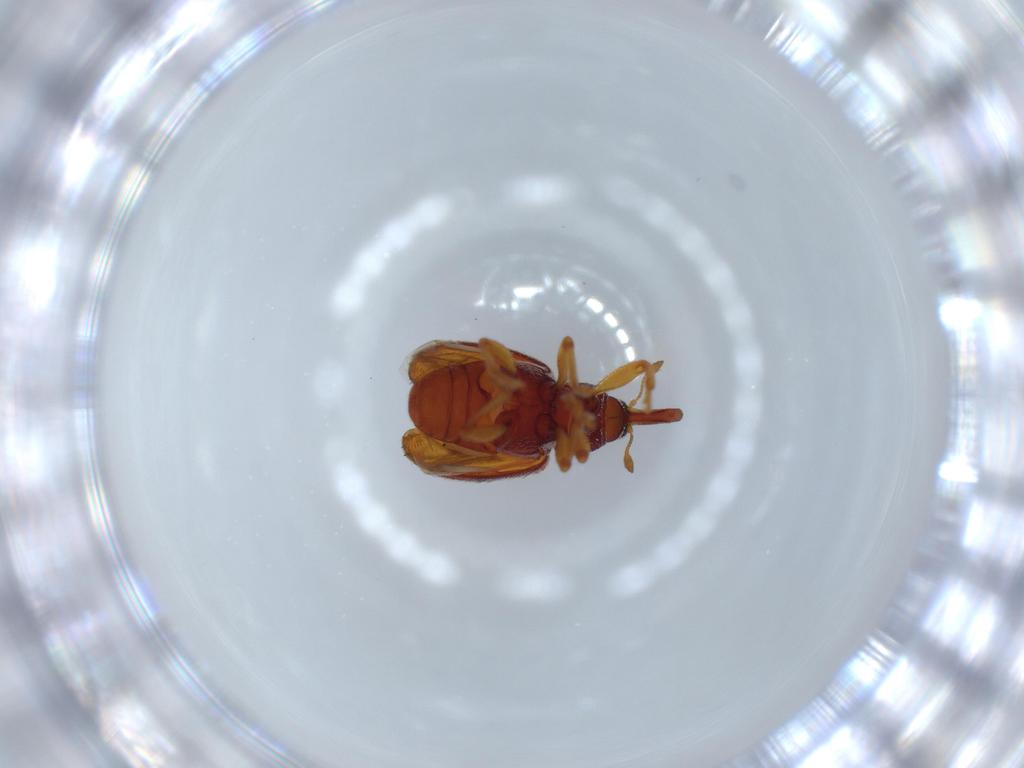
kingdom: Animalia
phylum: Arthropoda
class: Insecta
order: Coleoptera
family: Curculionidae
